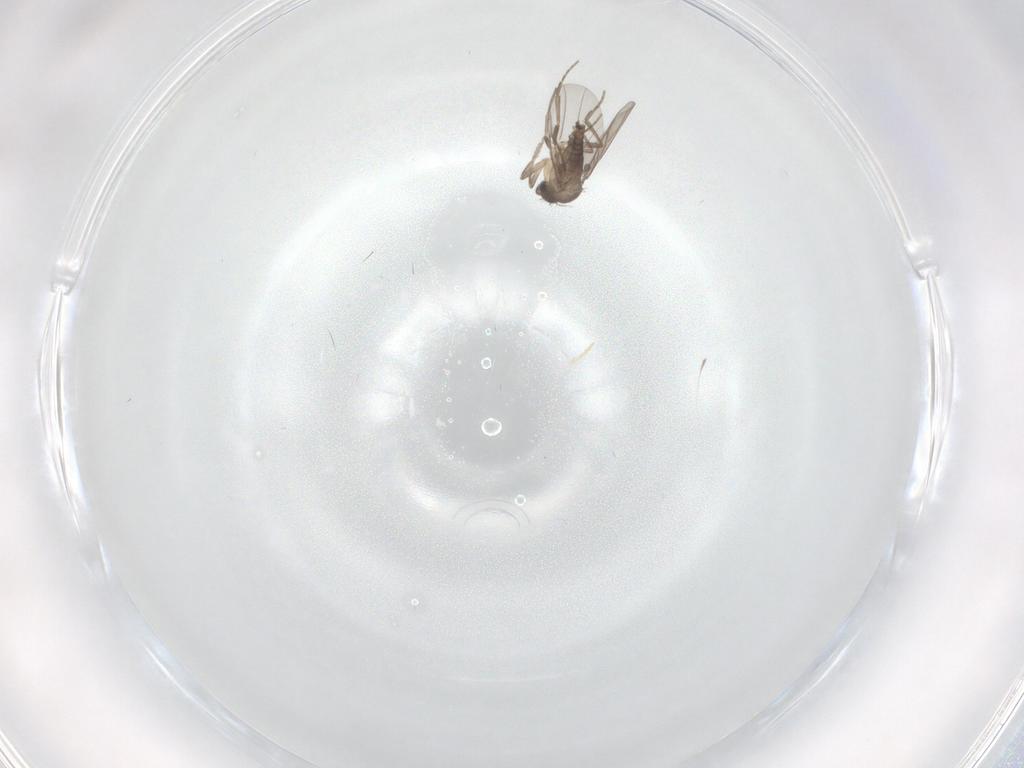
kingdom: Animalia
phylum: Arthropoda
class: Insecta
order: Diptera
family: Phoridae
